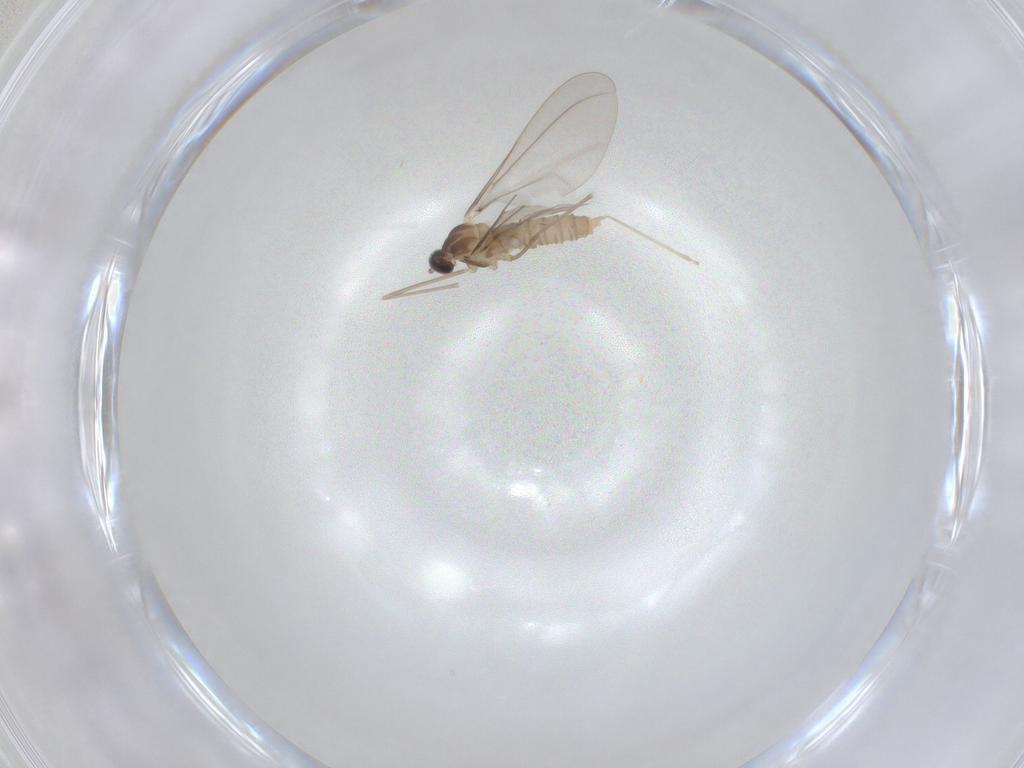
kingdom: Animalia
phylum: Arthropoda
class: Insecta
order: Diptera
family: Cecidomyiidae
